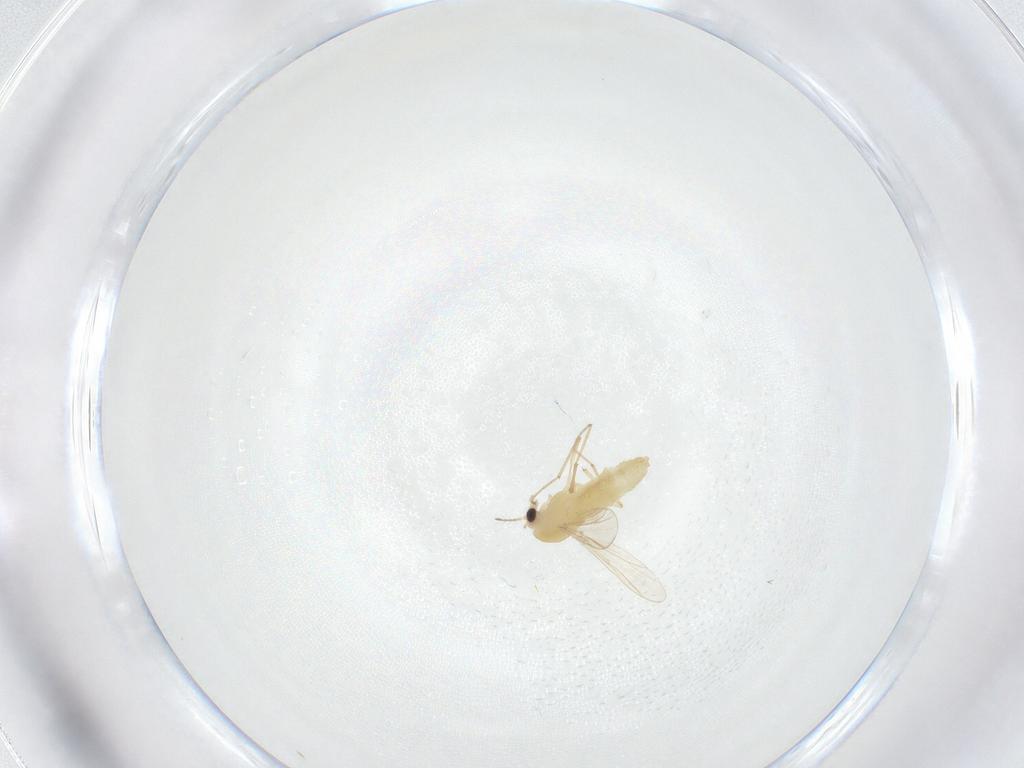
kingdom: Animalia
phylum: Arthropoda
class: Insecta
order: Diptera
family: Chironomidae
